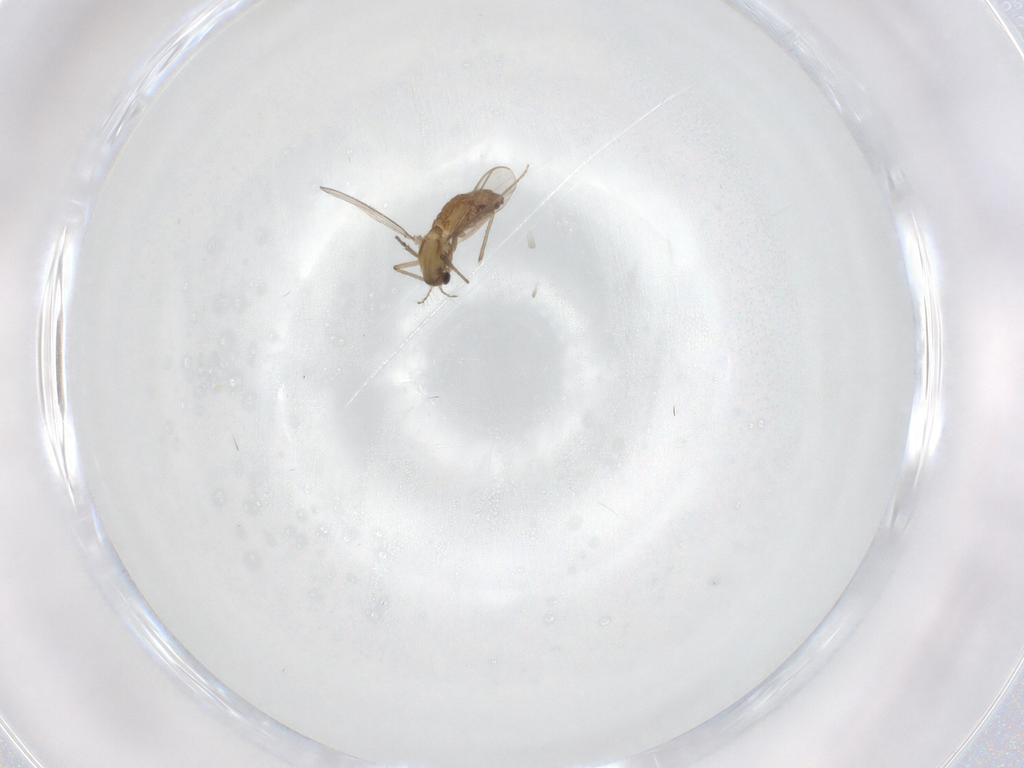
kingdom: Animalia
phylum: Arthropoda
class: Insecta
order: Diptera
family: Chironomidae
